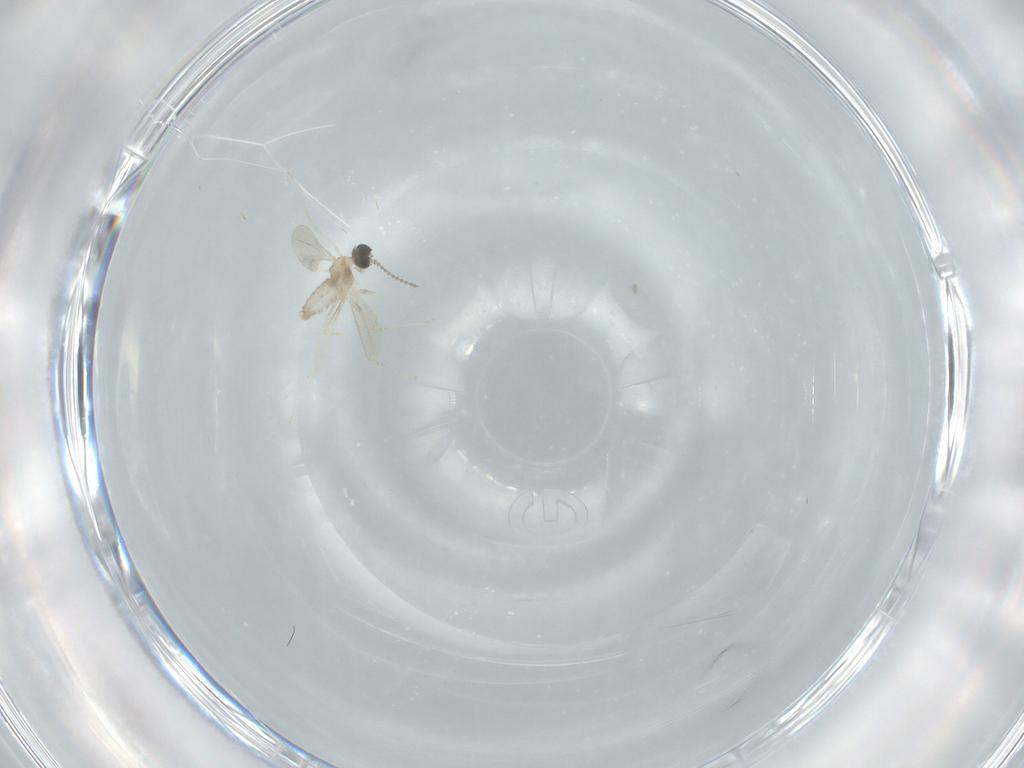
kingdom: Animalia
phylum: Arthropoda
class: Insecta
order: Diptera
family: Cecidomyiidae
